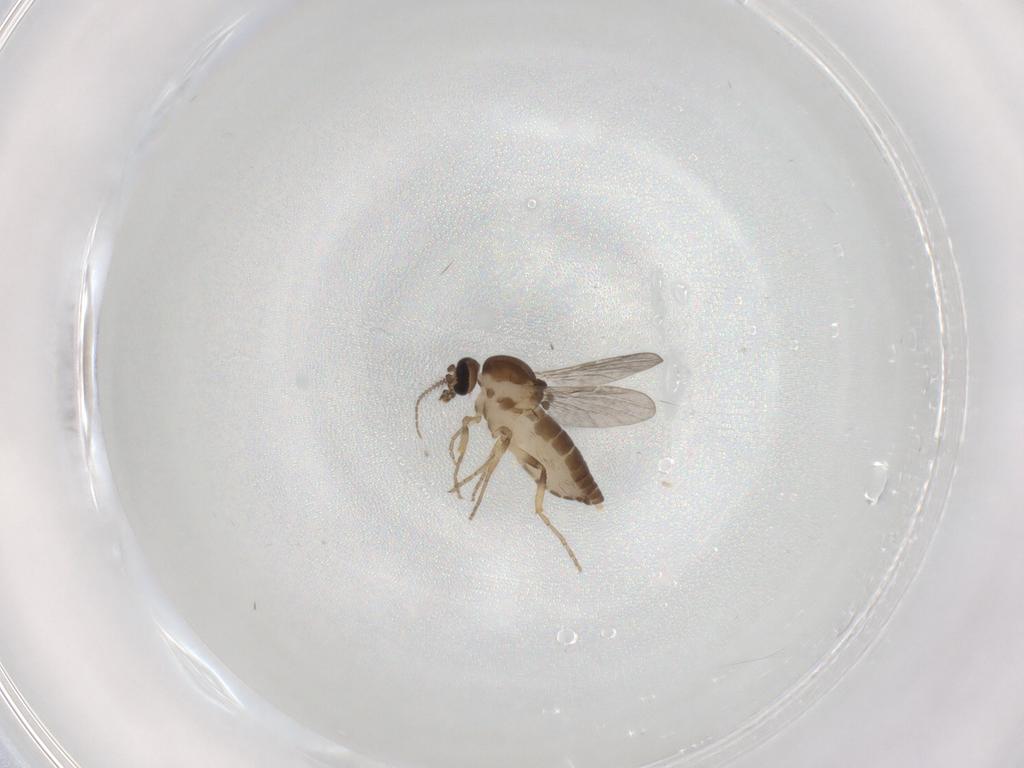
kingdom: Animalia
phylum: Arthropoda
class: Insecta
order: Diptera
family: Ceratopogonidae
